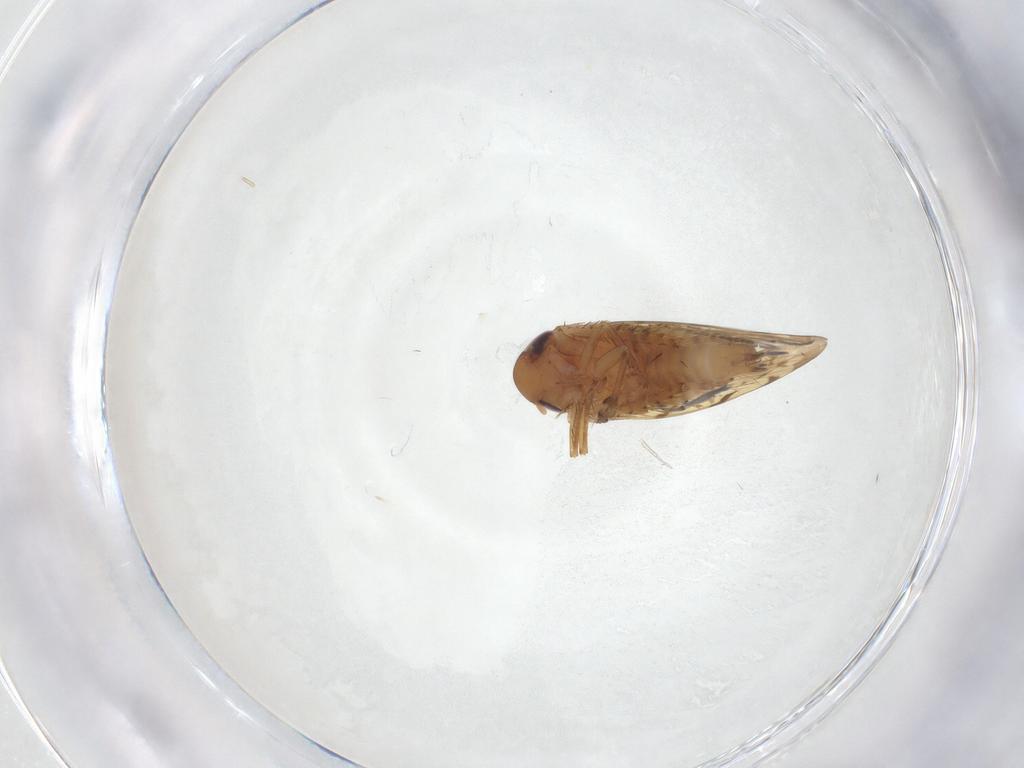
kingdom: Animalia
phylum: Arthropoda
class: Insecta
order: Hemiptera
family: Cicadellidae
